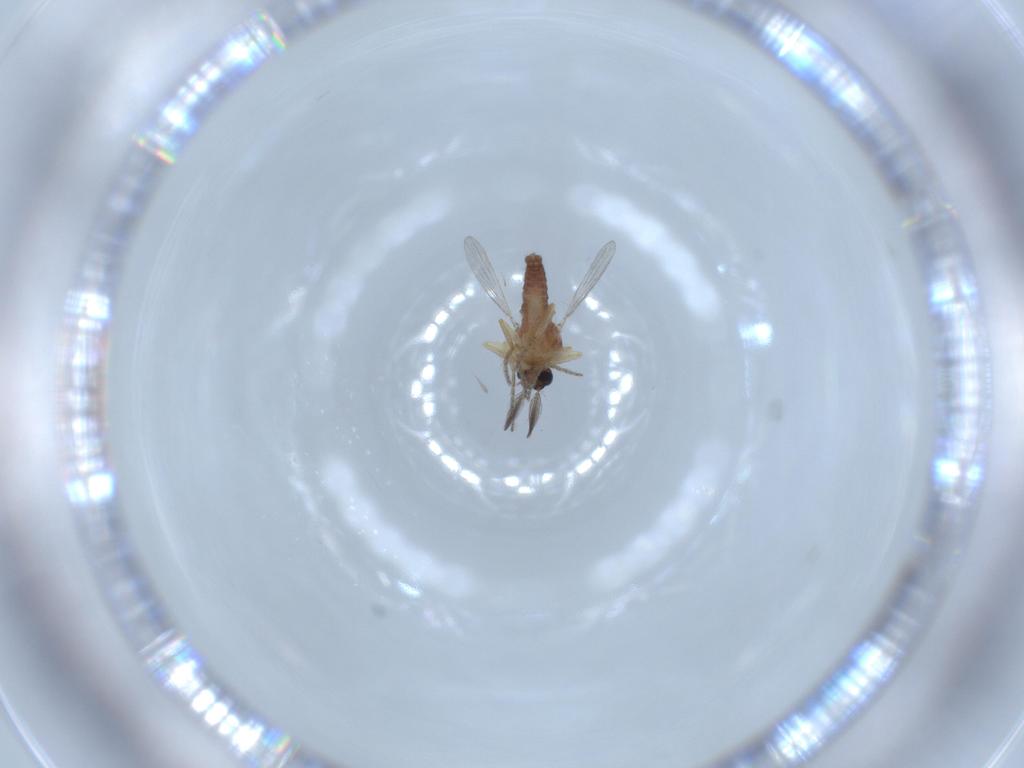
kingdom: Animalia
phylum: Arthropoda
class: Insecta
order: Diptera
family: Ceratopogonidae
